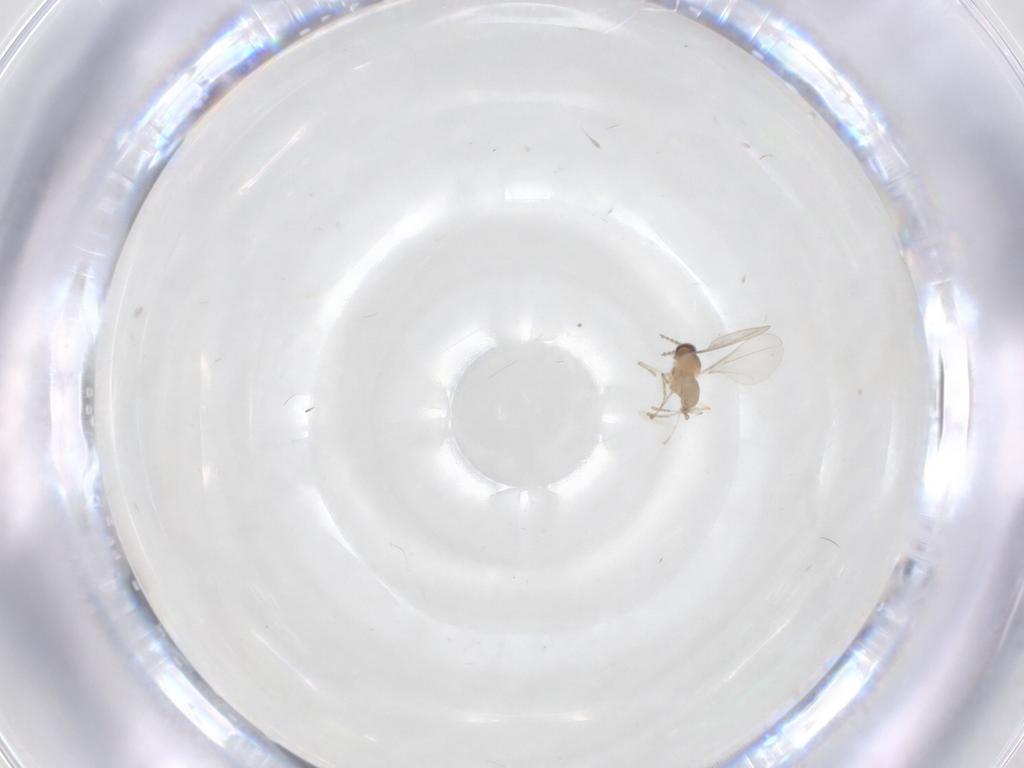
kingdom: Animalia
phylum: Arthropoda
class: Insecta
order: Diptera
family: Cecidomyiidae
